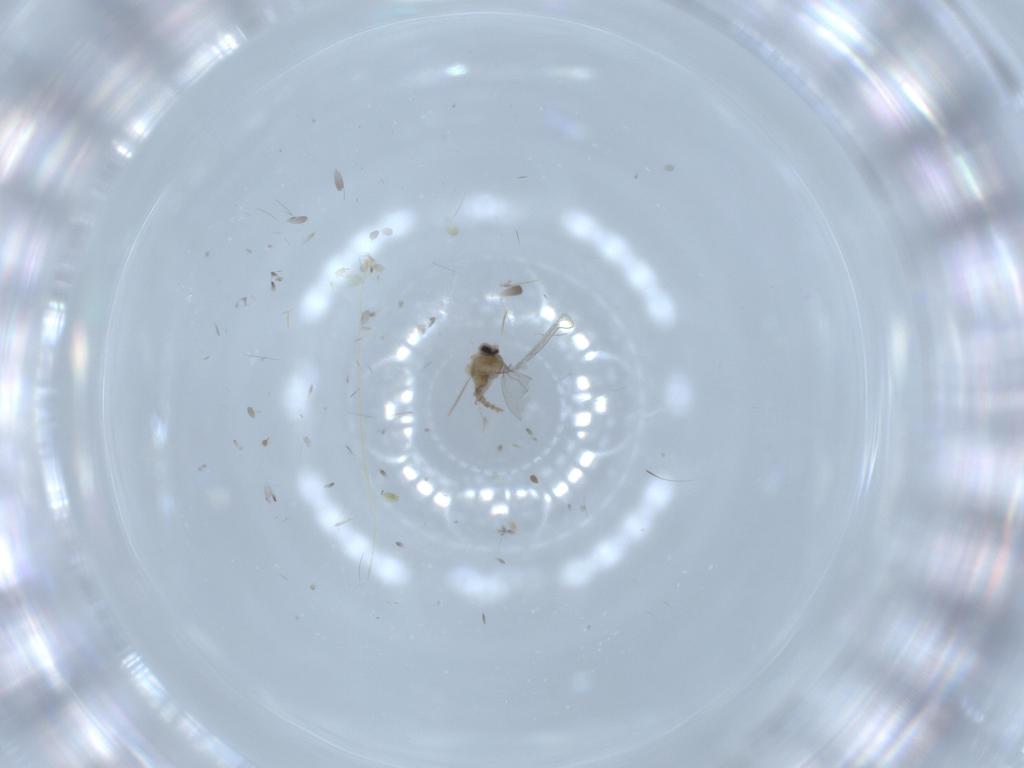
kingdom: Animalia
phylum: Arthropoda
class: Insecta
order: Diptera
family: Cecidomyiidae
